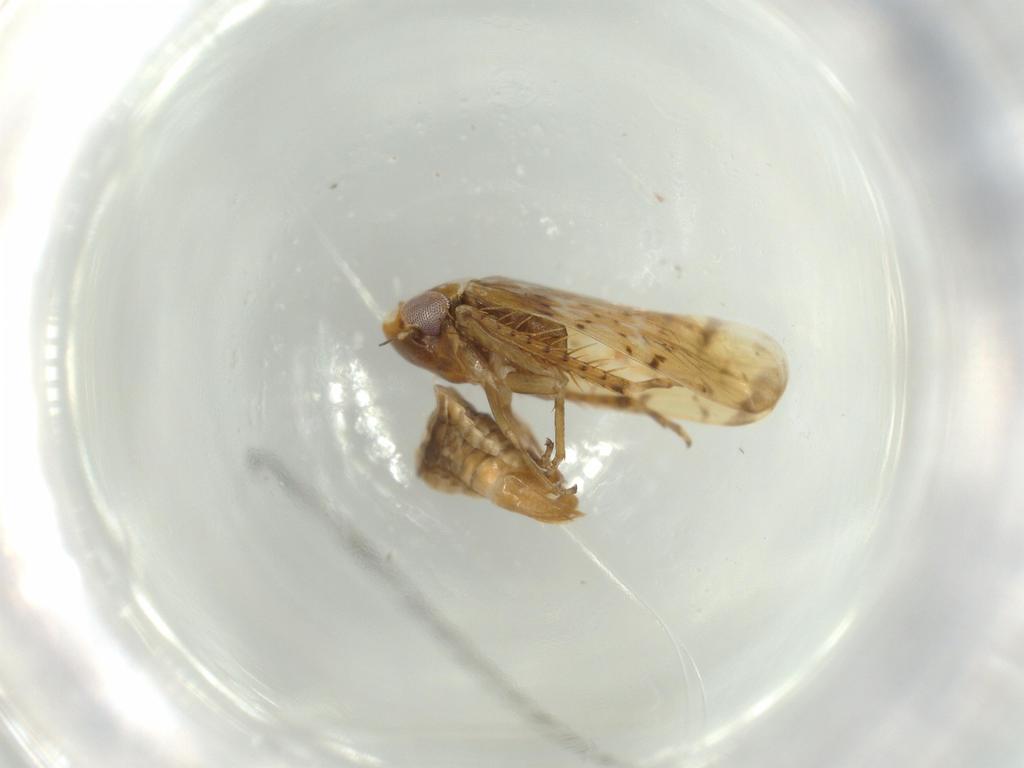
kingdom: Animalia
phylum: Arthropoda
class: Insecta
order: Hemiptera
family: Cicadellidae
